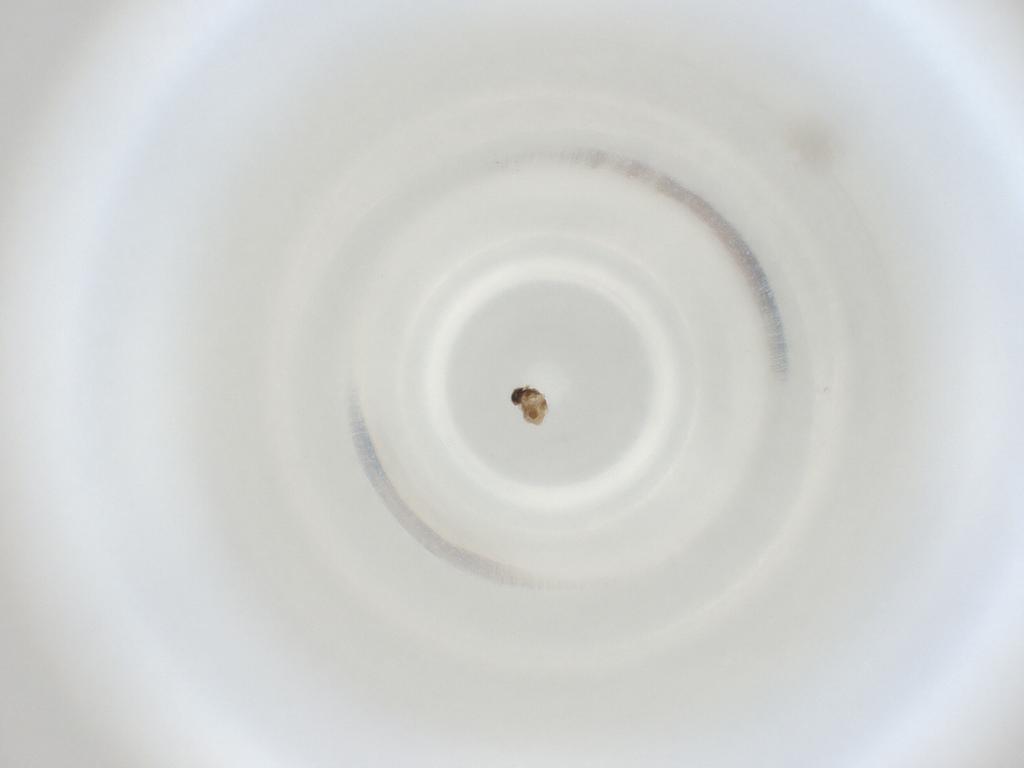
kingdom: Animalia
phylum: Arthropoda
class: Insecta
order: Diptera
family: Cecidomyiidae
